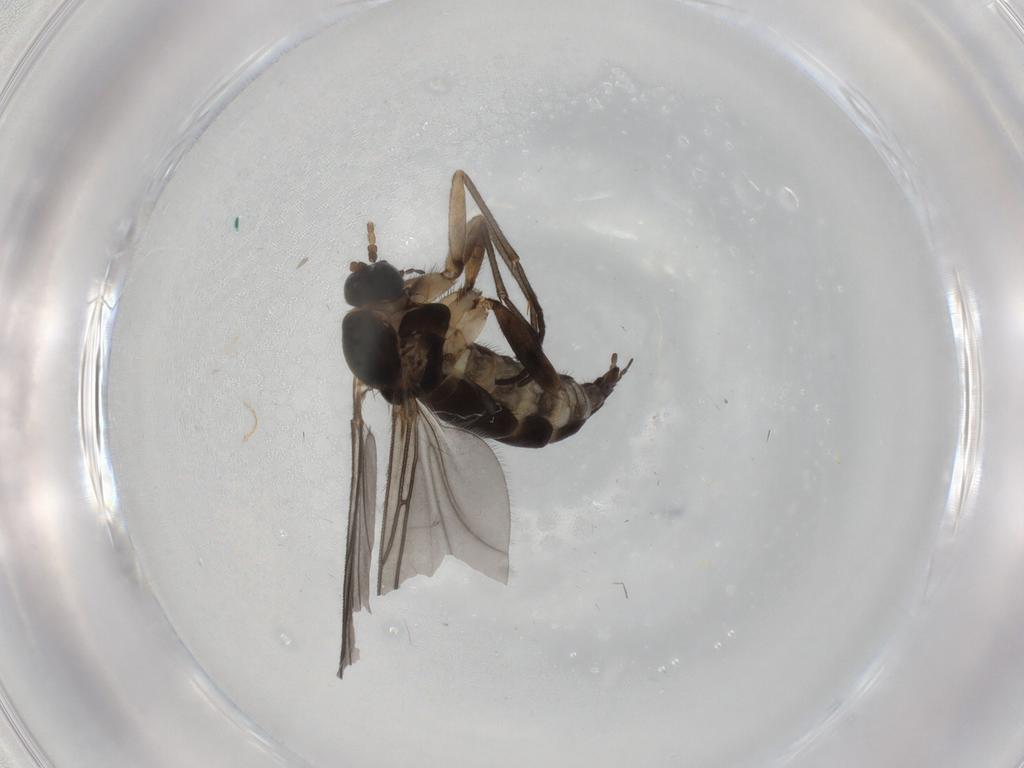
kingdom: Animalia
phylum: Arthropoda
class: Insecta
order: Diptera
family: Sciaridae
